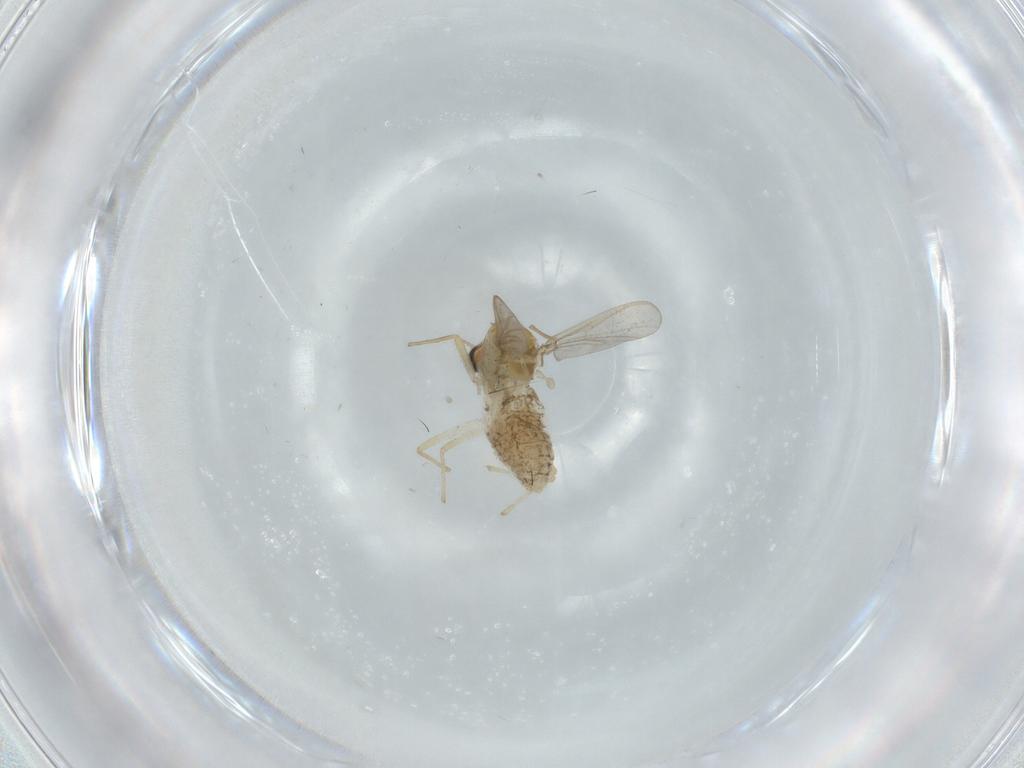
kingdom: Animalia
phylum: Arthropoda
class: Insecta
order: Diptera
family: Chironomidae
